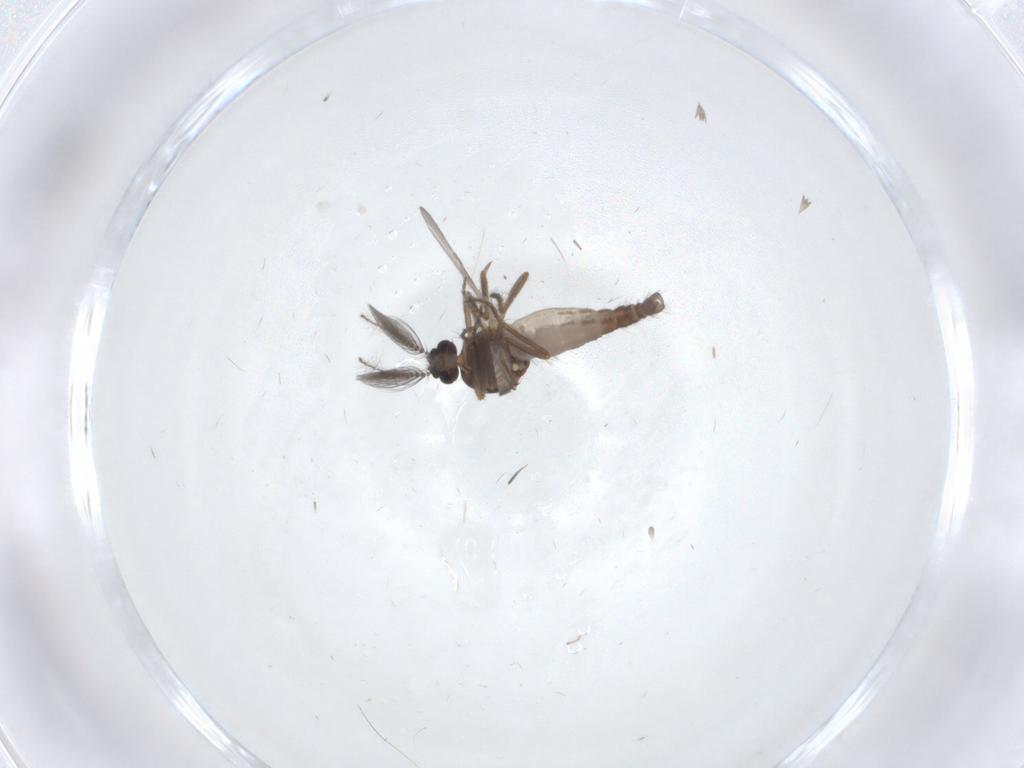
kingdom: Animalia
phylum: Arthropoda
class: Insecta
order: Diptera
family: Ceratopogonidae
